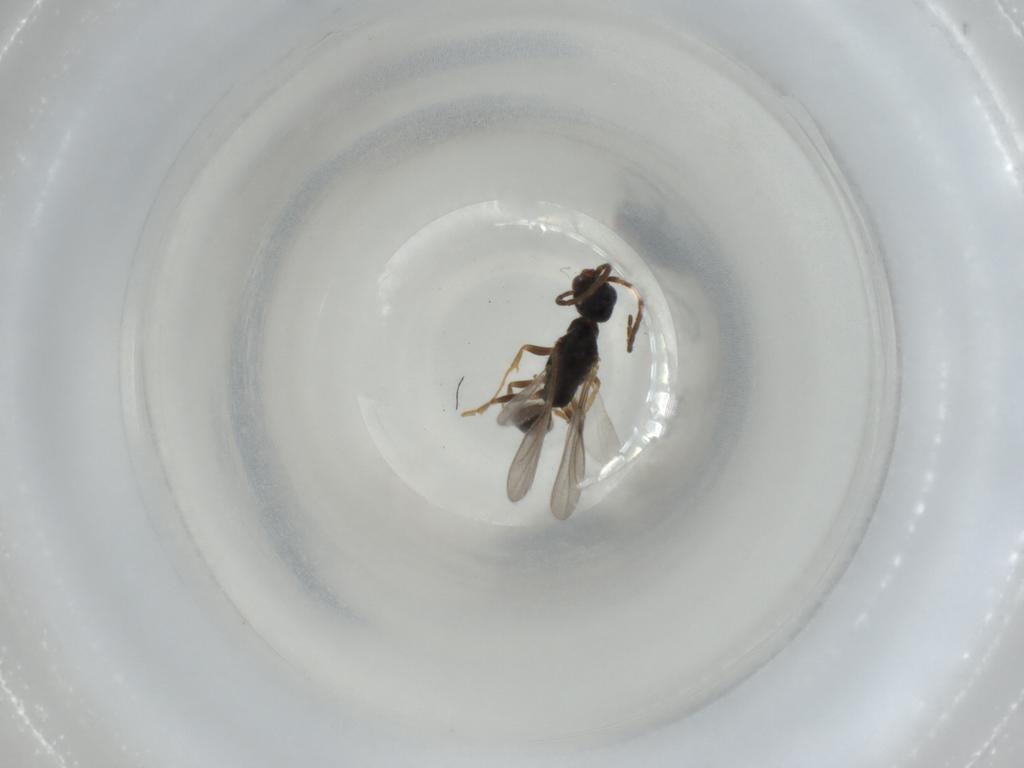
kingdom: Animalia
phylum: Arthropoda
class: Insecta
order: Hymenoptera
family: Bethylidae
